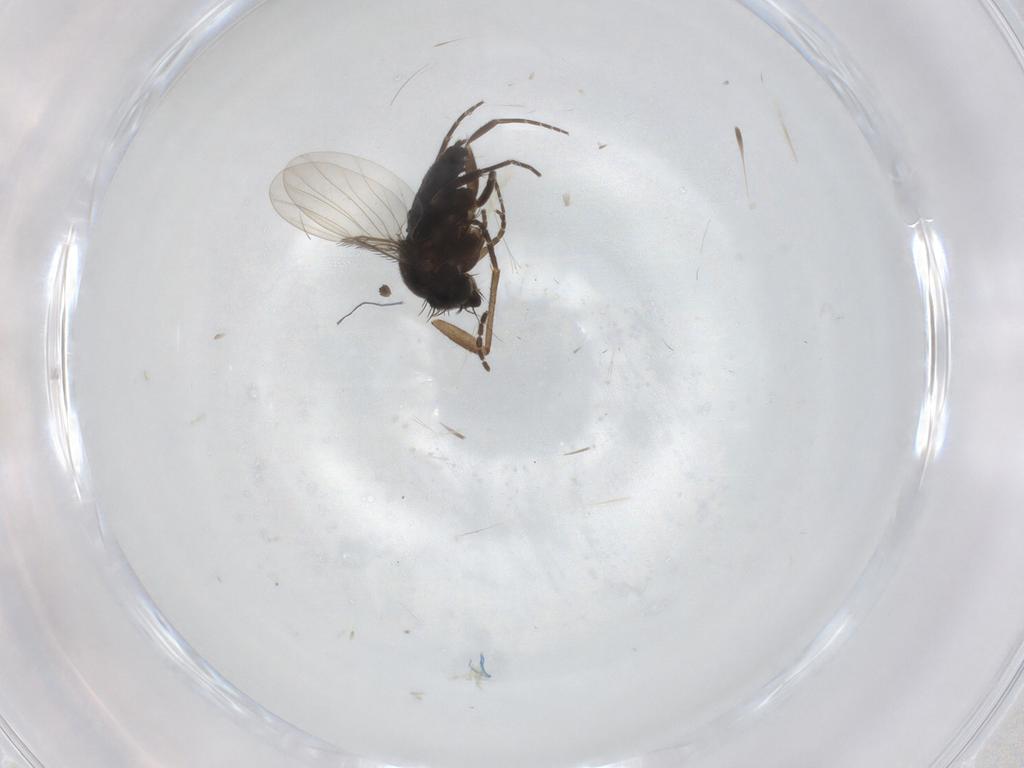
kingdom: Animalia
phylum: Arthropoda
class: Insecta
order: Diptera
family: Phoridae
